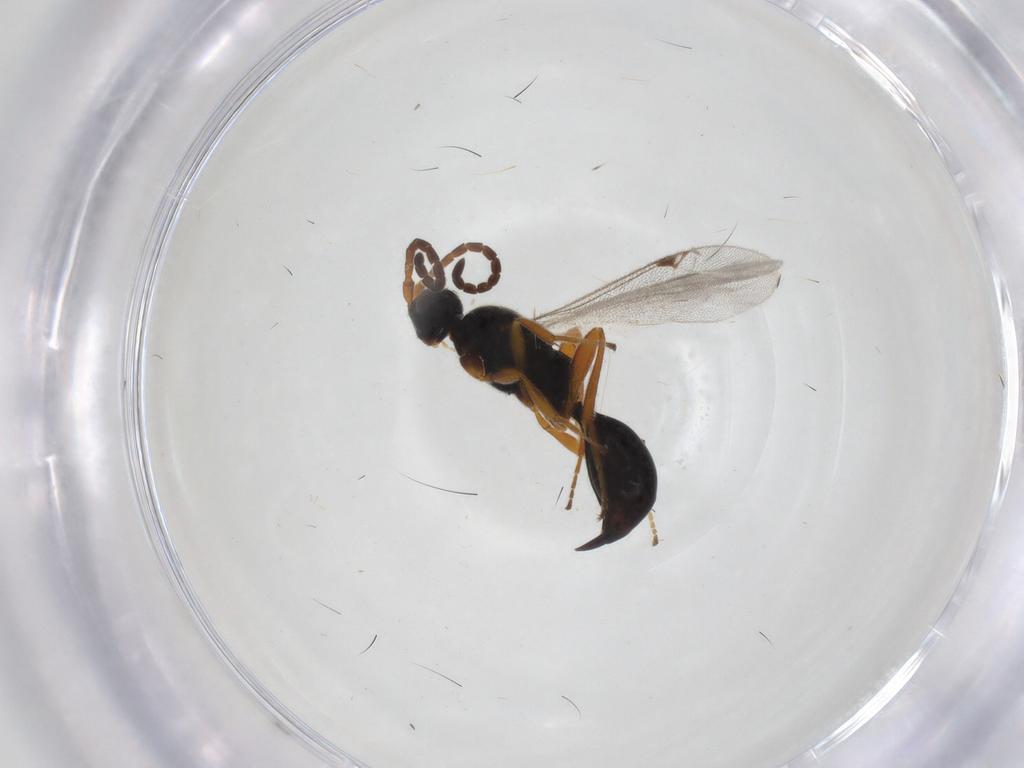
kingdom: Animalia
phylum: Arthropoda
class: Insecta
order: Hymenoptera
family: Proctotrupidae
